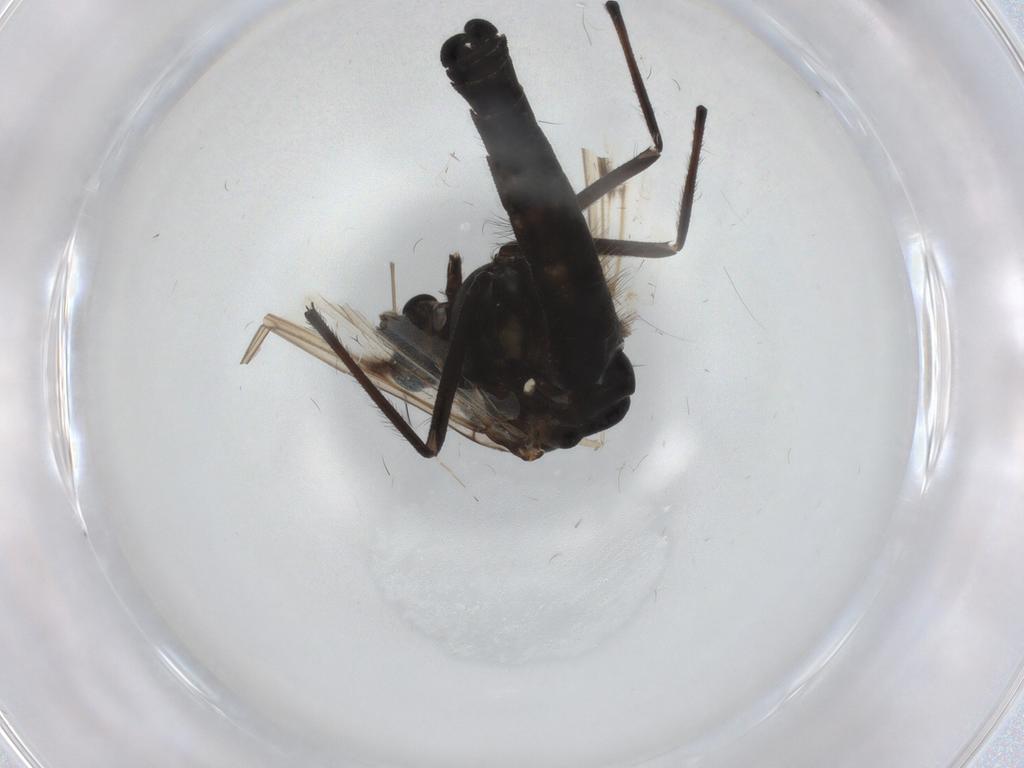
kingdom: Animalia
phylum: Arthropoda
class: Insecta
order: Diptera
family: Chironomidae
